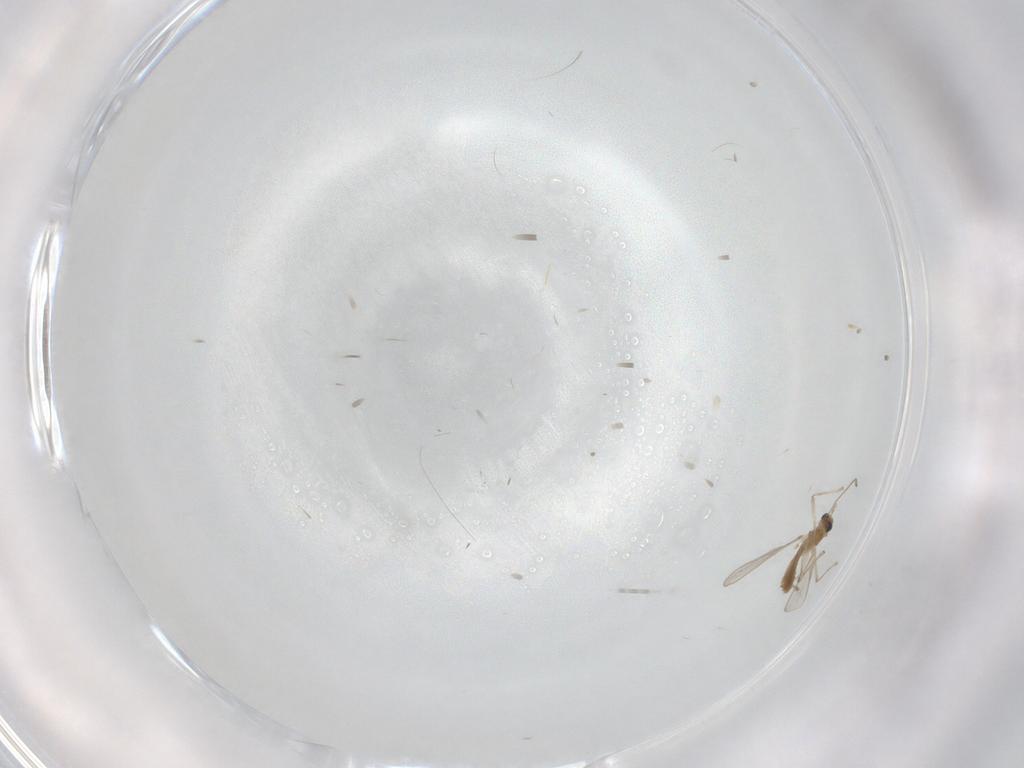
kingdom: Animalia
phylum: Arthropoda
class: Insecta
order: Diptera
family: Chironomidae
